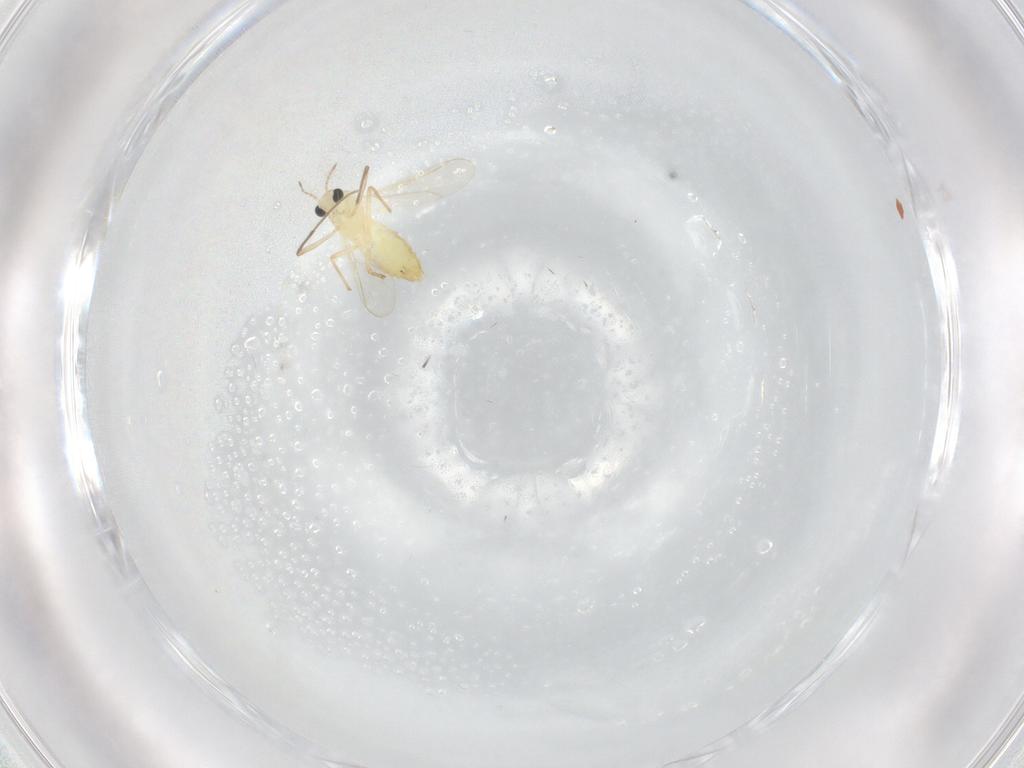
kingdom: Animalia
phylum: Arthropoda
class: Insecta
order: Diptera
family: Chironomidae
